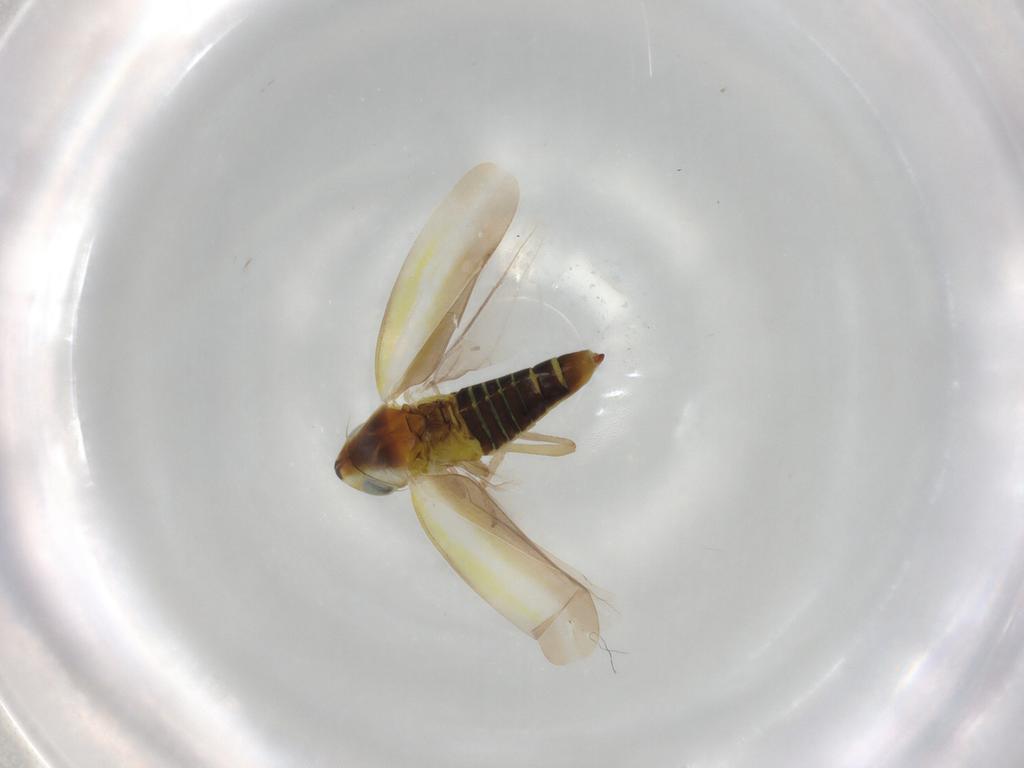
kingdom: Animalia
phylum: Arthropoda
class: Insecta
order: Hemiptera
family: Cicadellidae
